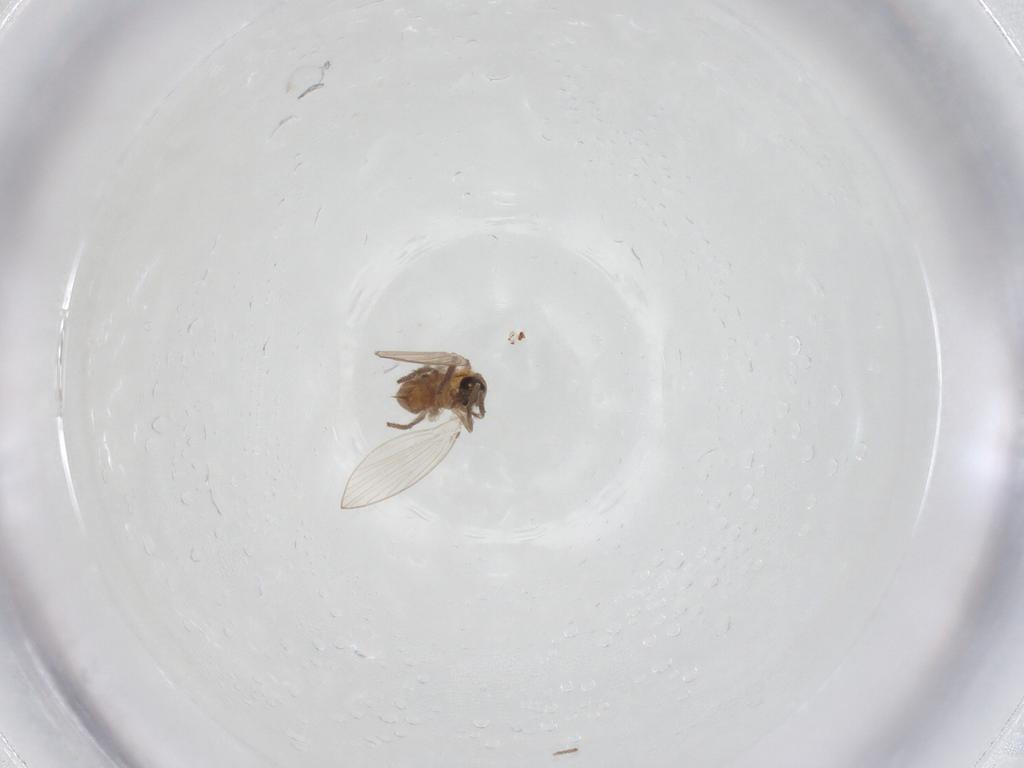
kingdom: Animalia
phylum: Arthropoda
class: Insecta
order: Diptera
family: Psychodidae
